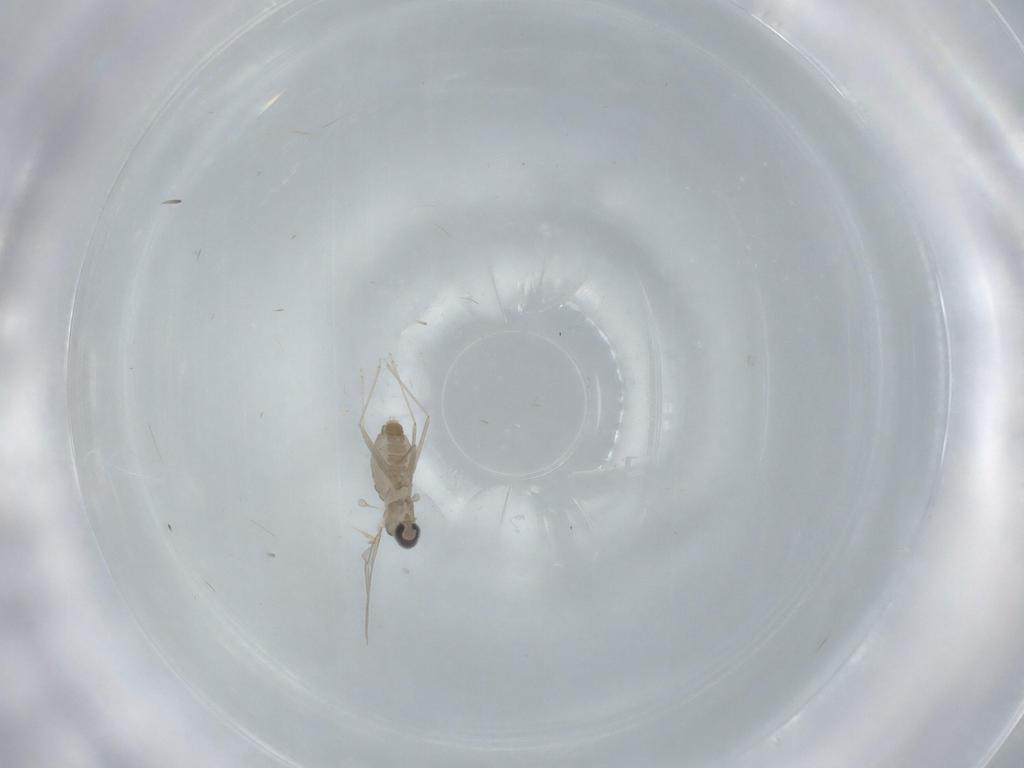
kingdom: Animalia
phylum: Arthropoda
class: Insecta
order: Diptera
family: Cecidomyiidae
